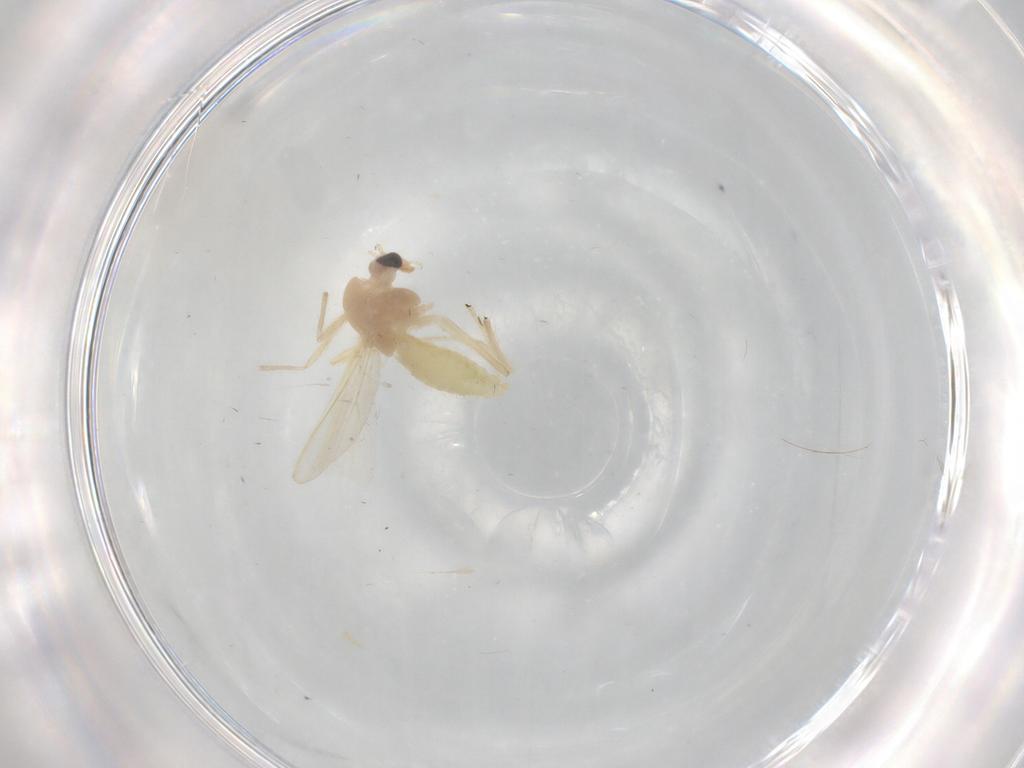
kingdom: Animalia
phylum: Arthropoda
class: Insecta
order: Diptera
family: Chironomidae
